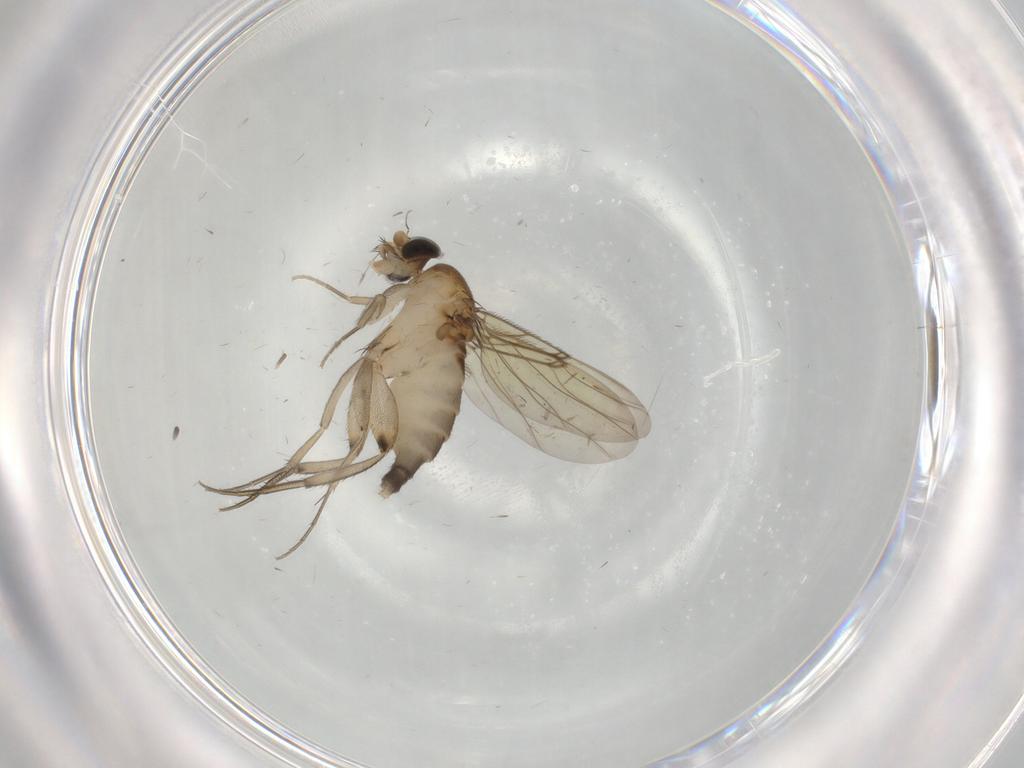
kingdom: Animalia
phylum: Arthropoda
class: Insecta
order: Diptera
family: Phoridae
